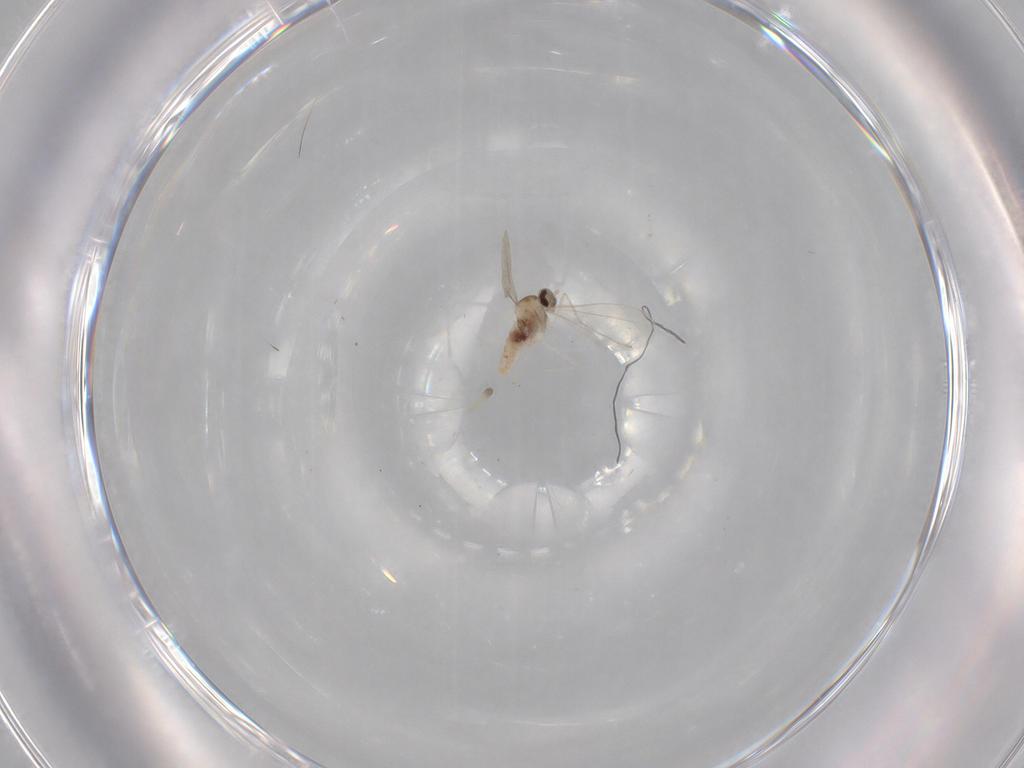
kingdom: Animalia
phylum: Arthropoda
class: Insecta
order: Diptera
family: Cecidomyiidae
